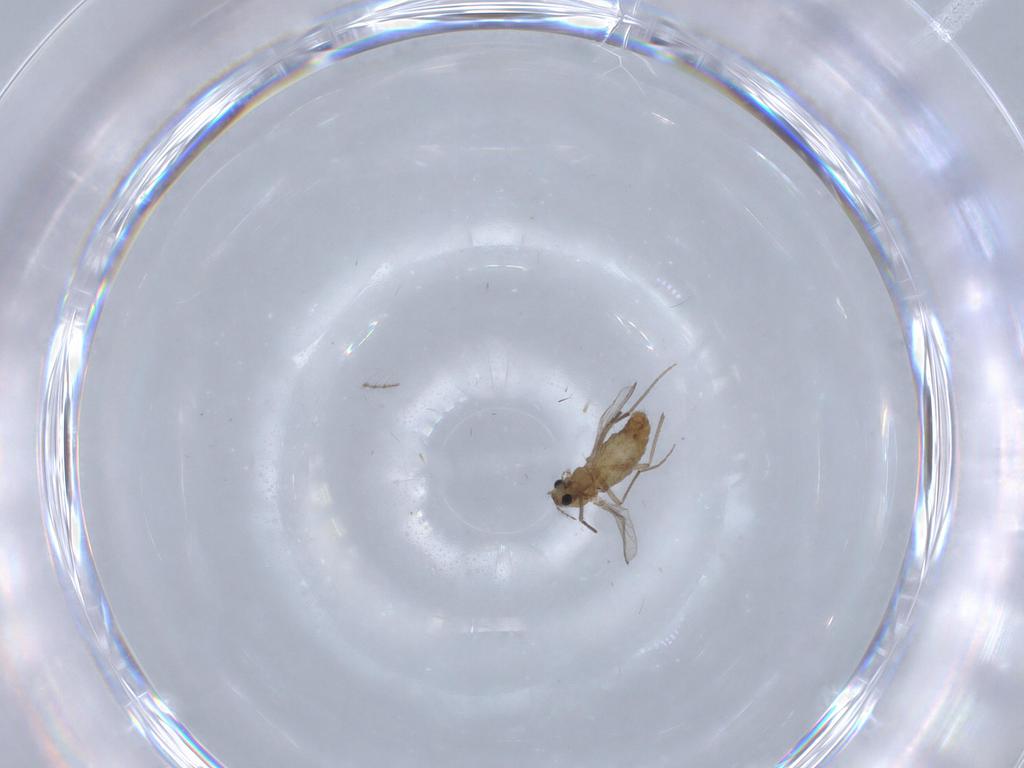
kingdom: Animalia
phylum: Arthropoda
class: Insecta
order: Diptera
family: Chironomidae
